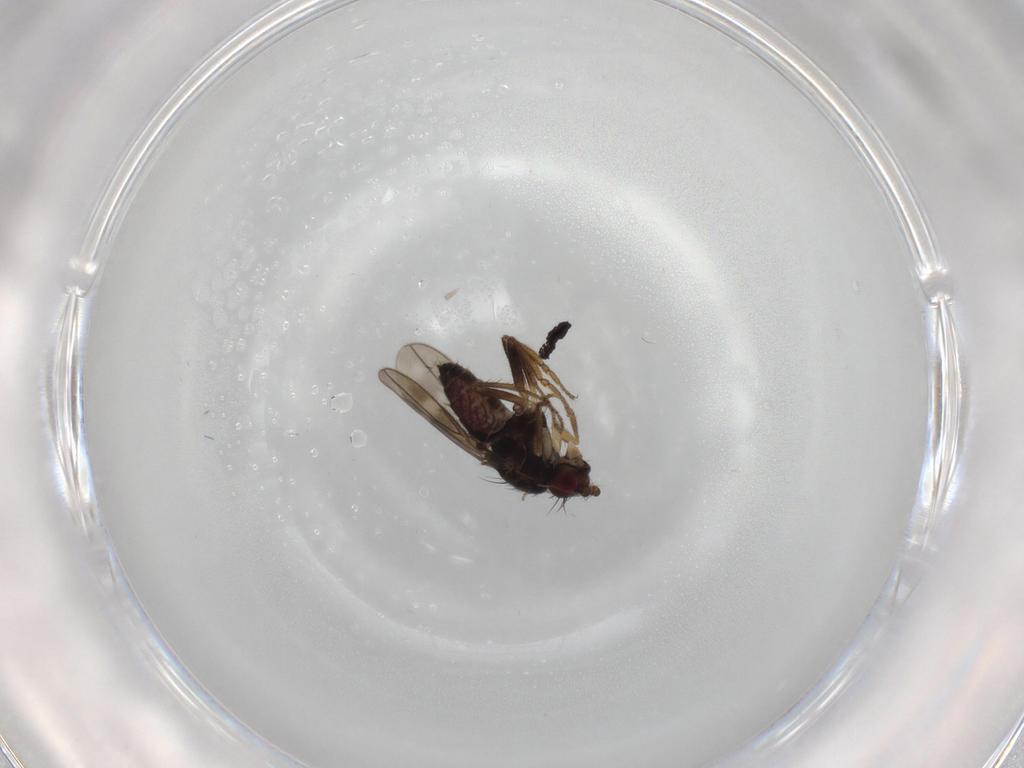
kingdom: Animalia
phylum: Arthropoda
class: Insecta
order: Diptera
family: Sphaeroceridae
